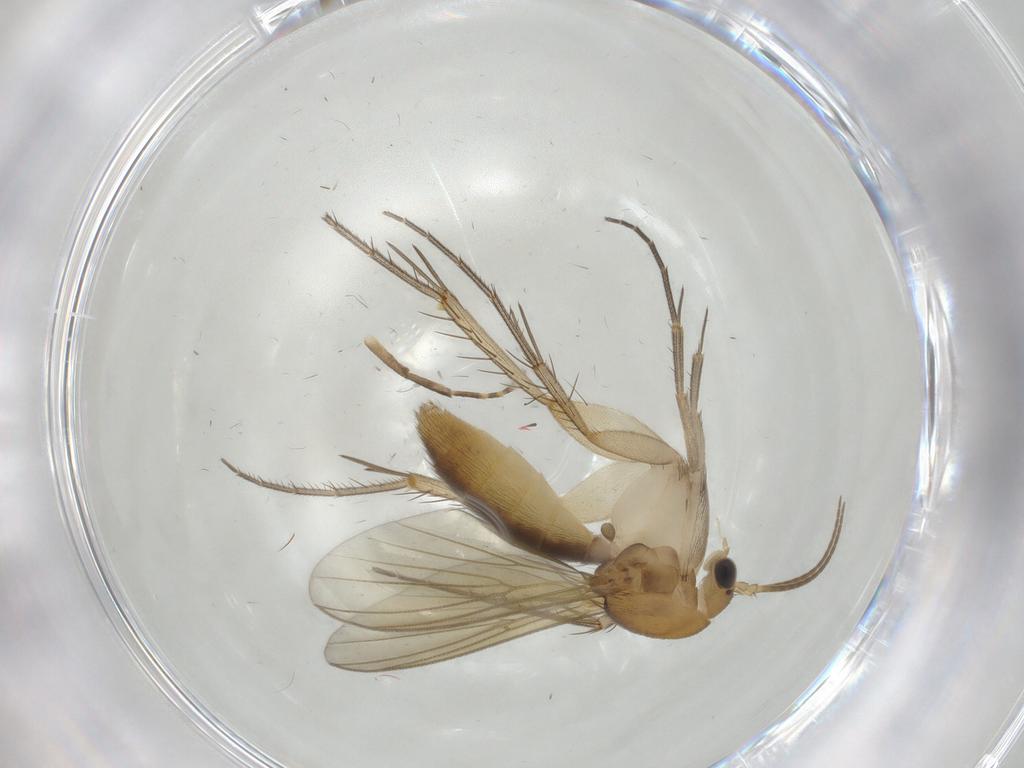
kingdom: Animalia
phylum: Arthropoda
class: Insecta
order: Diptera
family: Mycetophilidae
